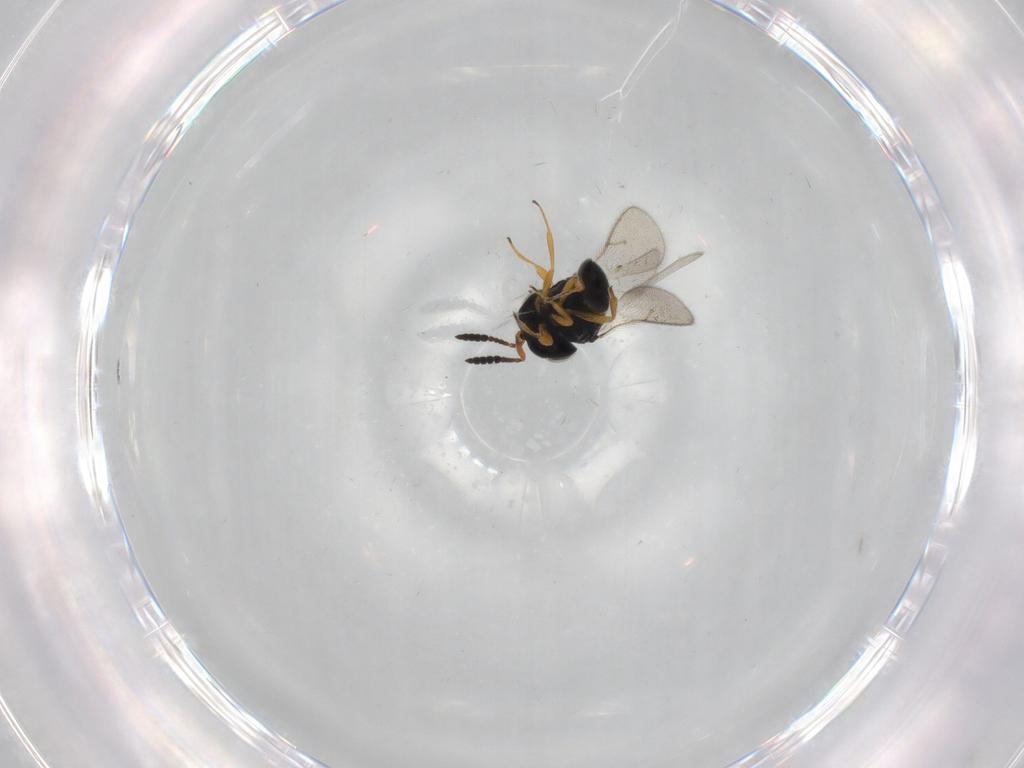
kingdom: Animalia
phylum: Arthropoda
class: Insecta
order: Hymenoptera
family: Scelionidae
